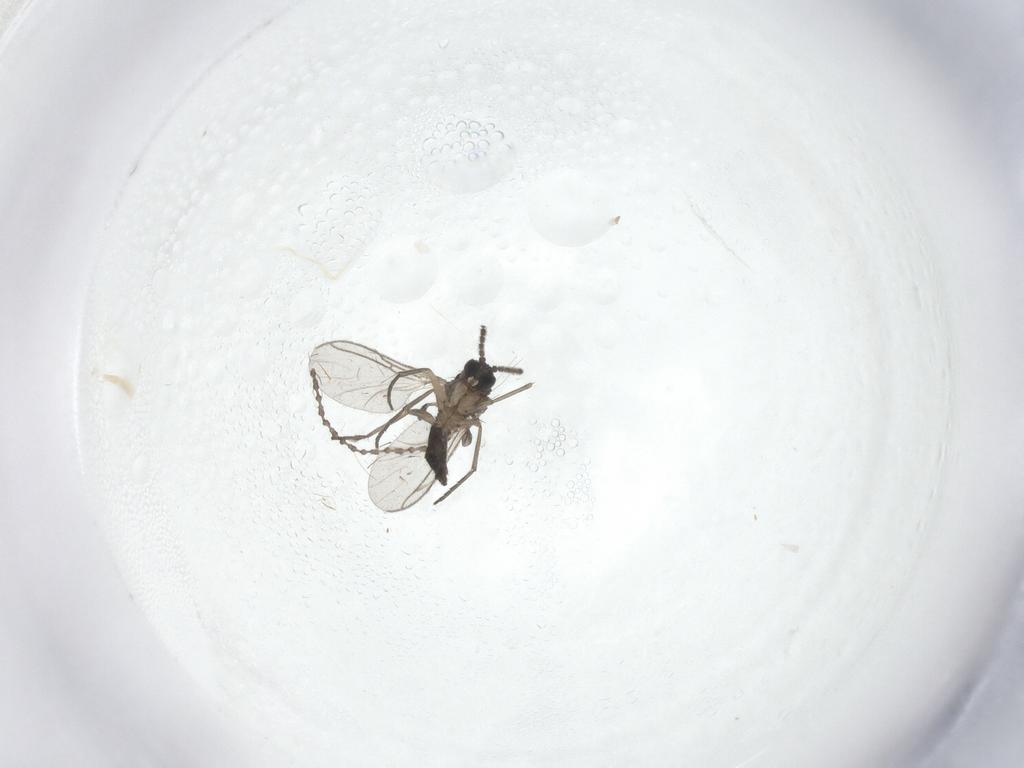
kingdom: Animalia
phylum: Arthropoda
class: Insecta
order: Diptera
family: Cecidomyiidae
